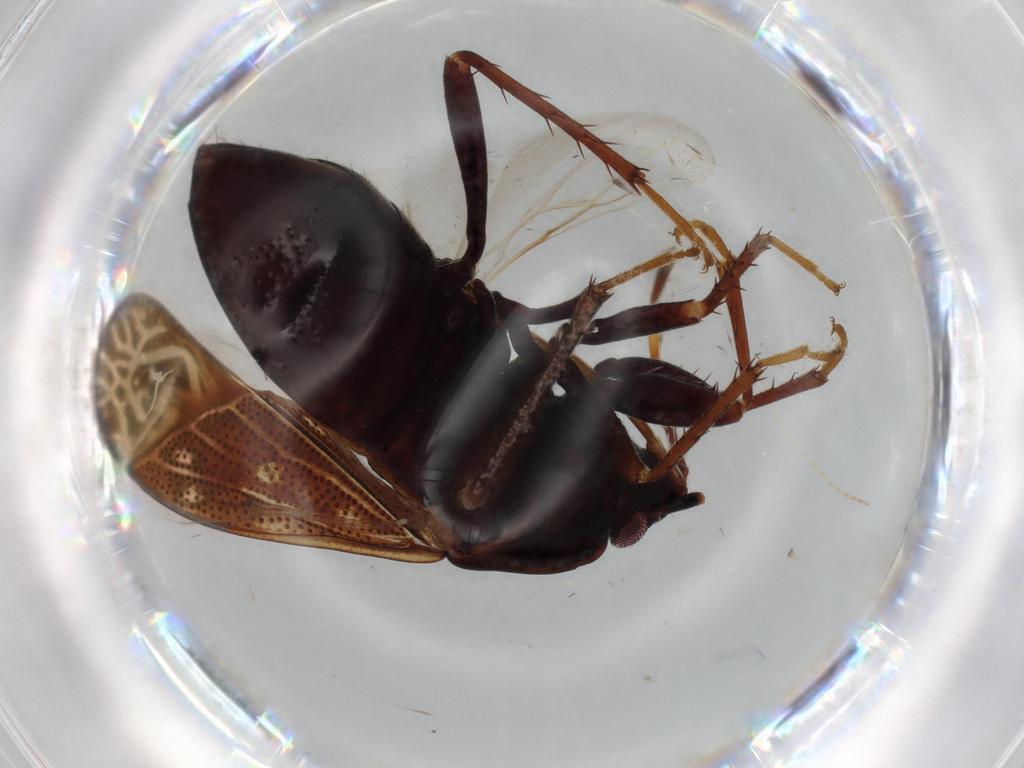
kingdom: Animalia
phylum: Arthropoda
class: Insecta
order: Hemiptera
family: Rhyparochromidae
